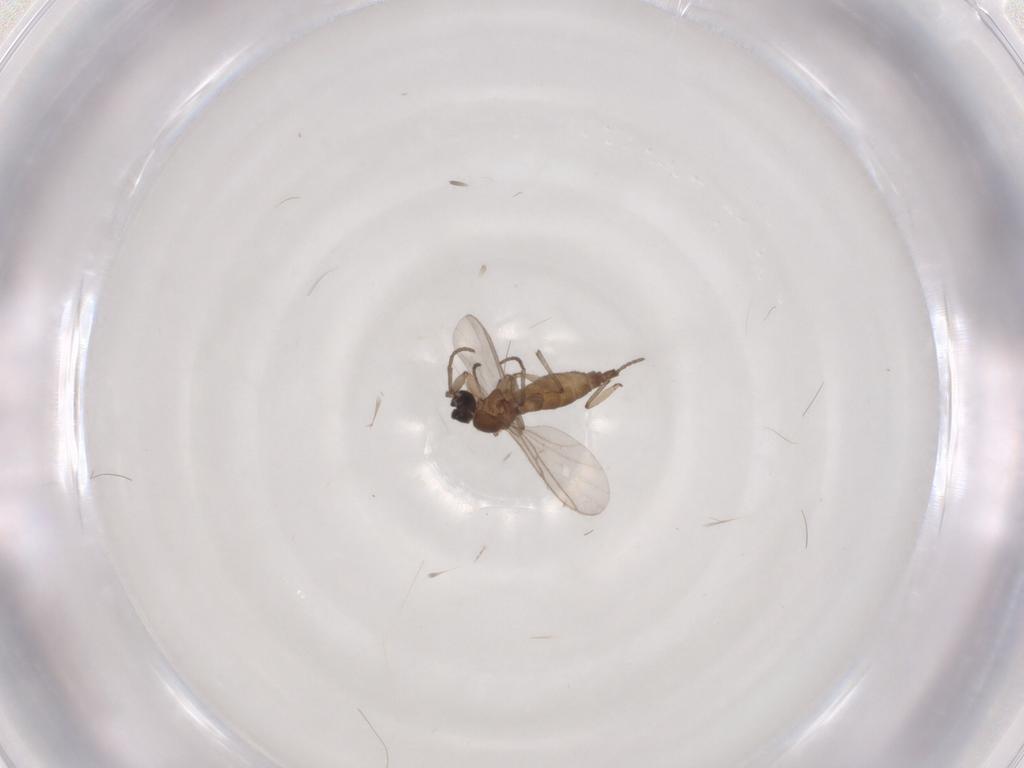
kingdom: Animalia
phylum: Arthropoda
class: Insecta
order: Diptera
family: Sciaridae
